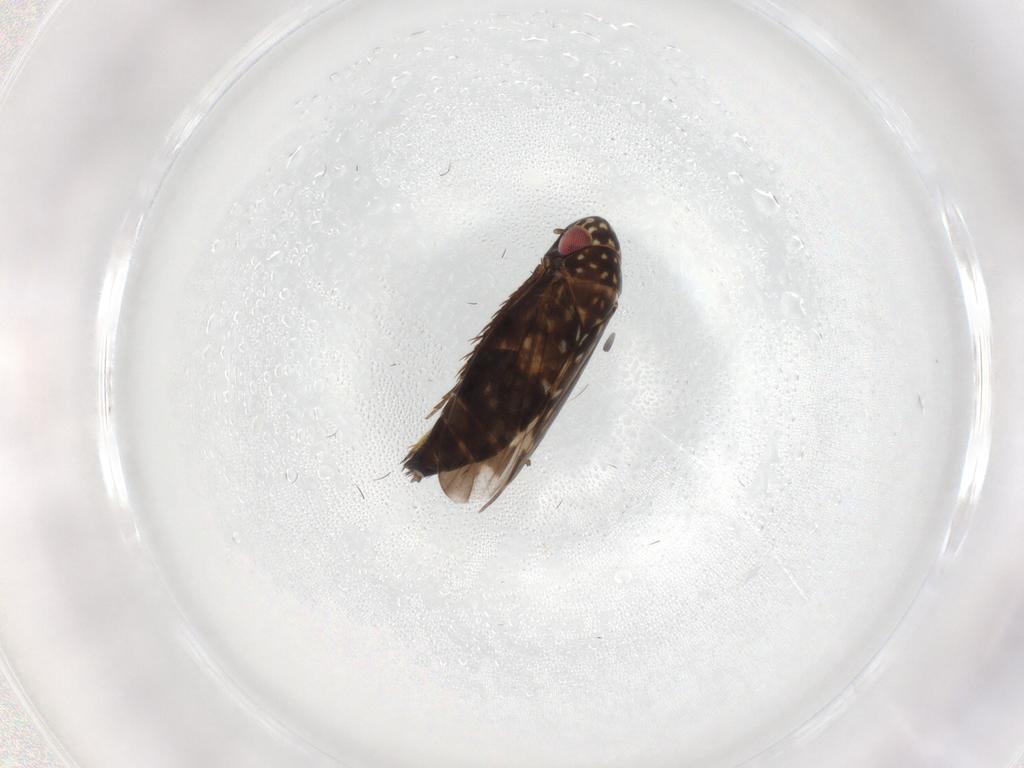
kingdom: Animalia
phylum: Arthropoda
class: Insecta
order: Hemiptera
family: Cicadellidae
